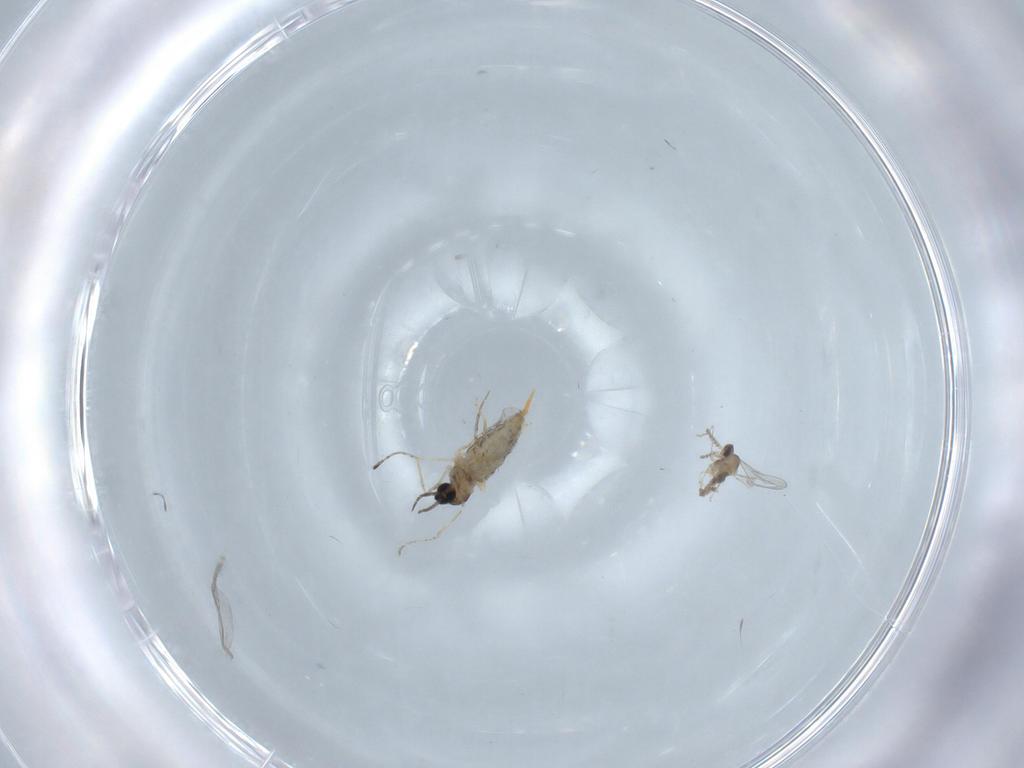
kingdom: Animalia
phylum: Arthropoda
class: Insecta
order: Diptera
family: Cecidomyiidae
